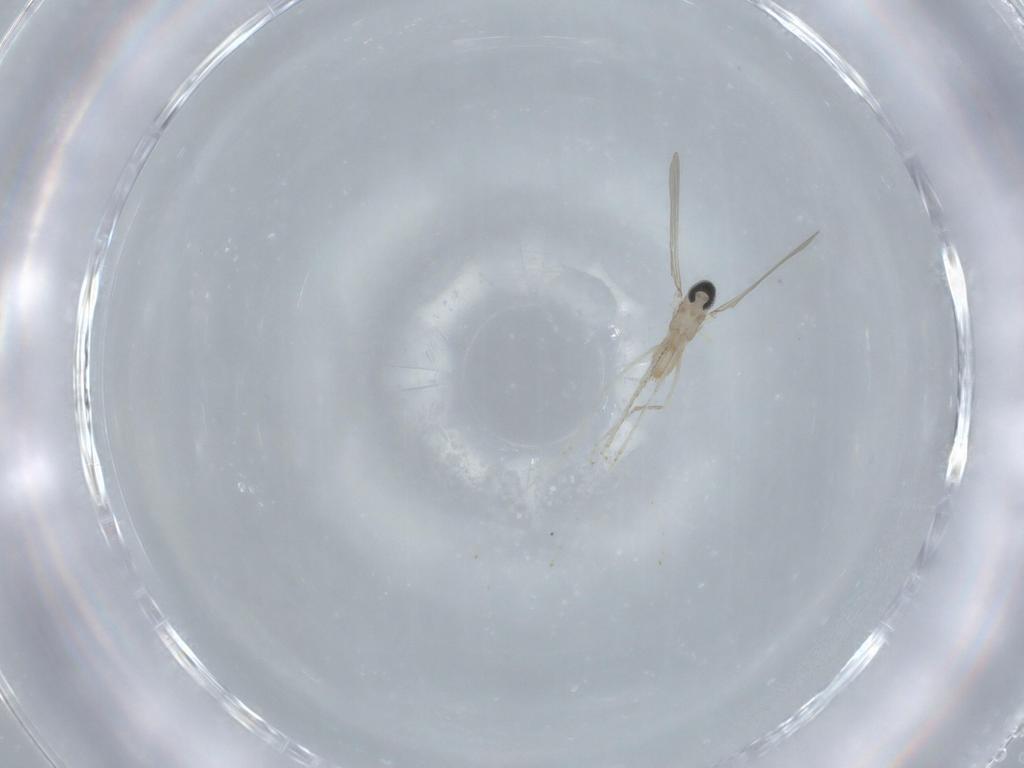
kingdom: Animalia
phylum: Arthropoda
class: Insecta
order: Diptera
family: Cecidomyiidae
